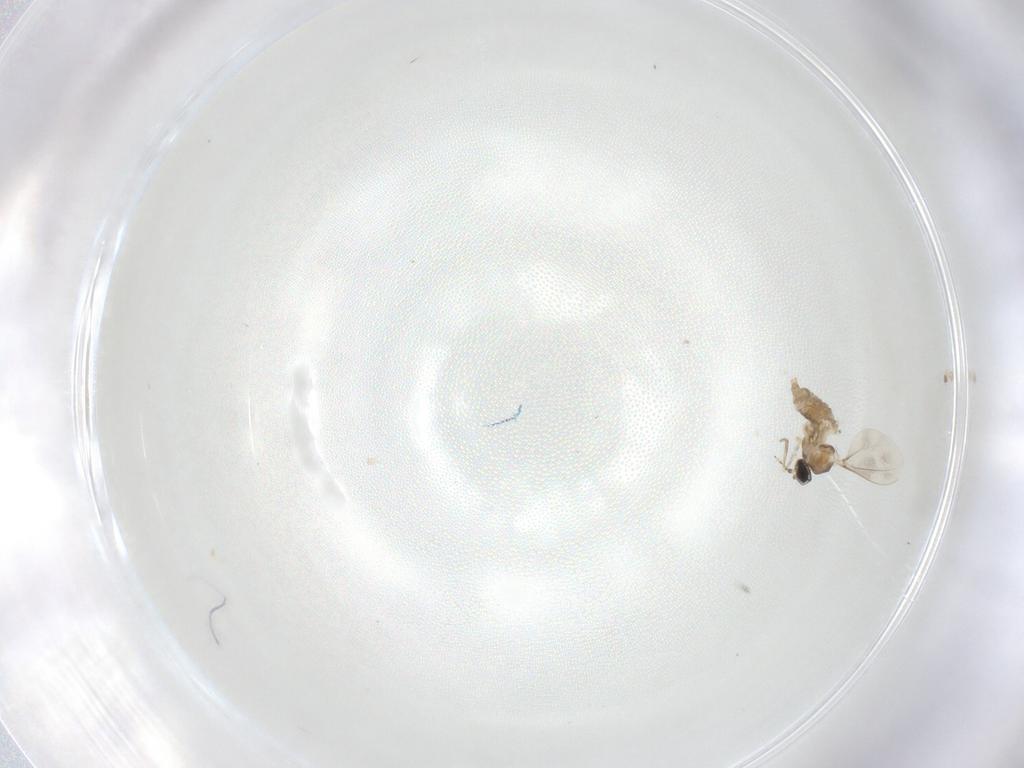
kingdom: Animalia
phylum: Arthropoda
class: Insecta
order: Diptera
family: Cecidomyiidae
